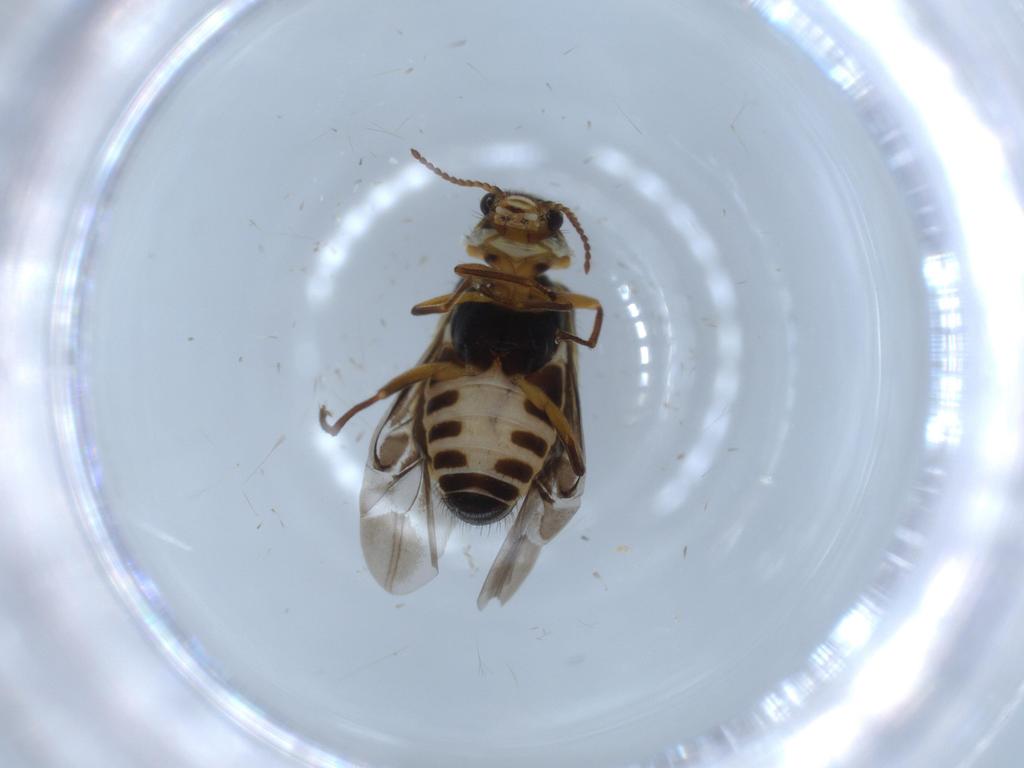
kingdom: Animalia
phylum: Arthropoda
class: Insecta
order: Coleoptera
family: Melyridae
